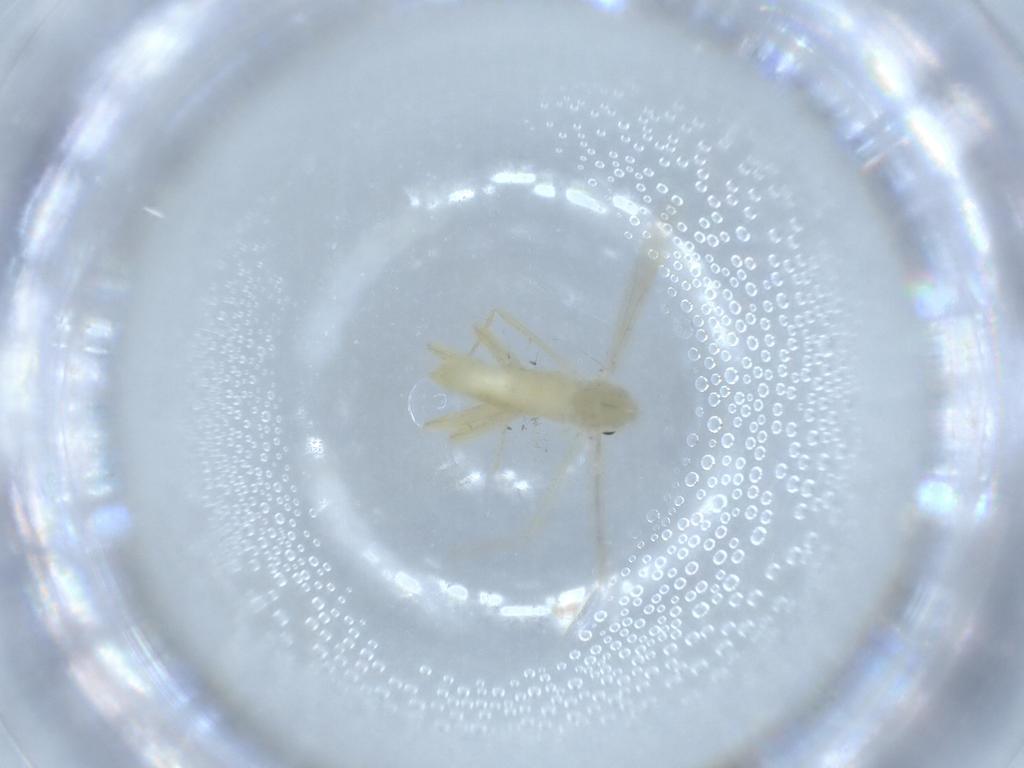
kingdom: Animalia
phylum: Arthropoda
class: Insecta
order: Diptera
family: Chironomidae
